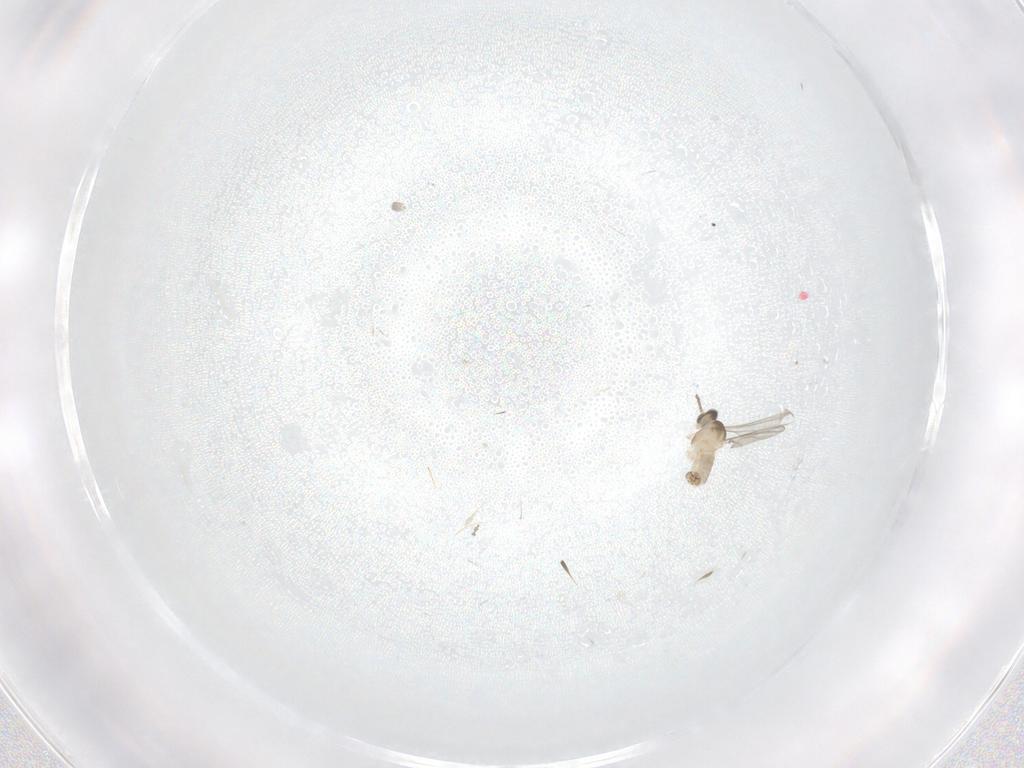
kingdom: Animalia
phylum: Arthropoda
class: Insecta
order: Diptera
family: Cecidomyiidae
